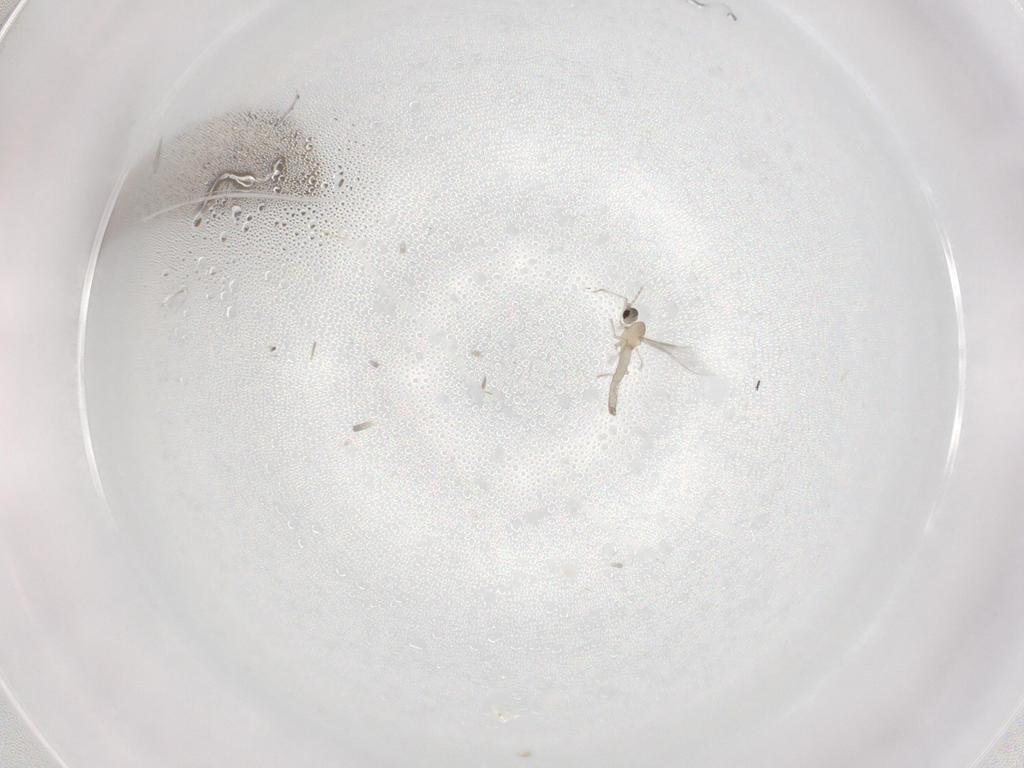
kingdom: Animalia
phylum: Arthropoda
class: Insecta
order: Diptera
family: Cecidomyiidae
